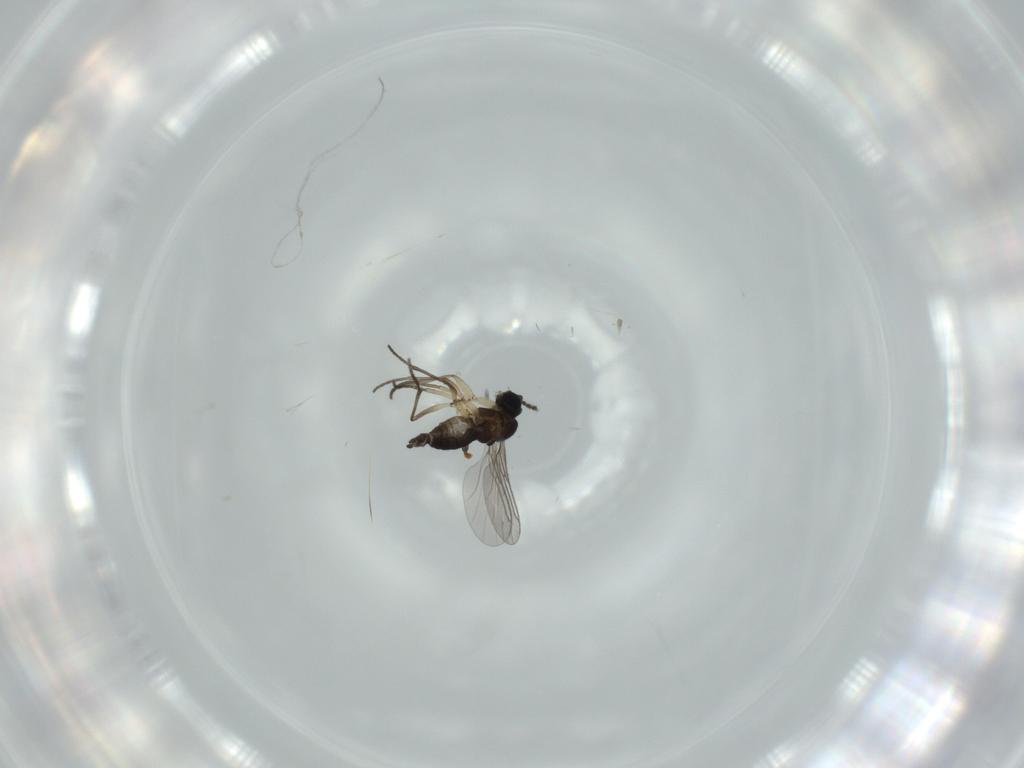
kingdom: Animalia
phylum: Arthropoda
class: Insecta
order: Diptera
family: Sciaridae
